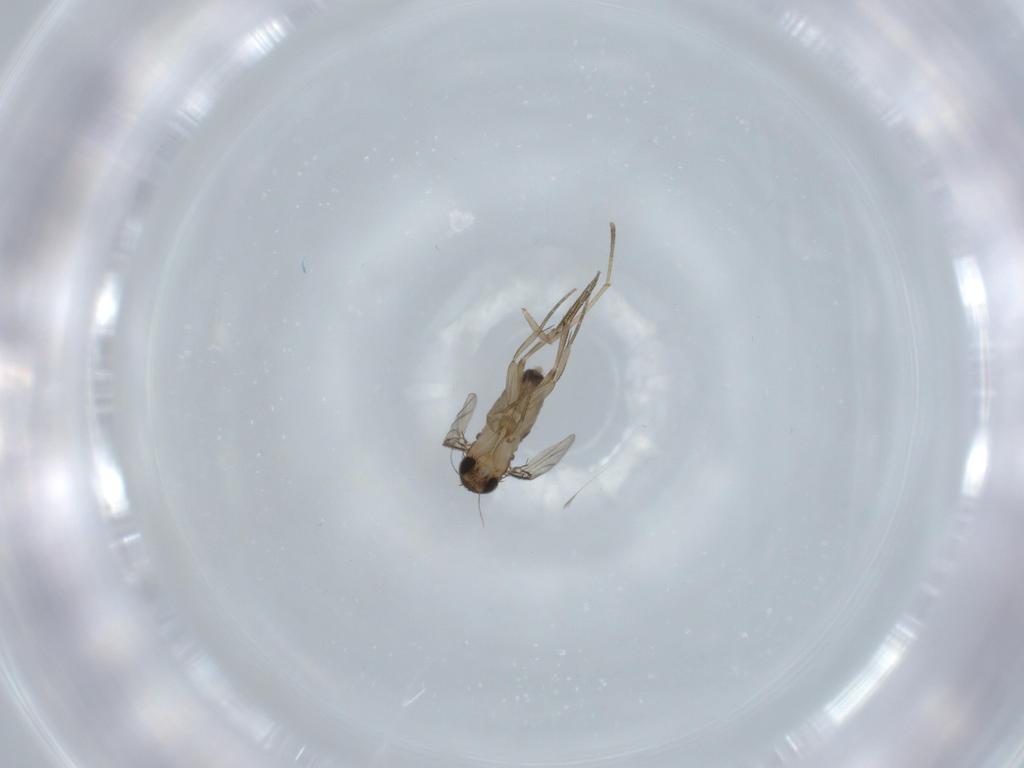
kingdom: Animalia
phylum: Arthropoda
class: Insecta
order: Diptera
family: Phoridae
